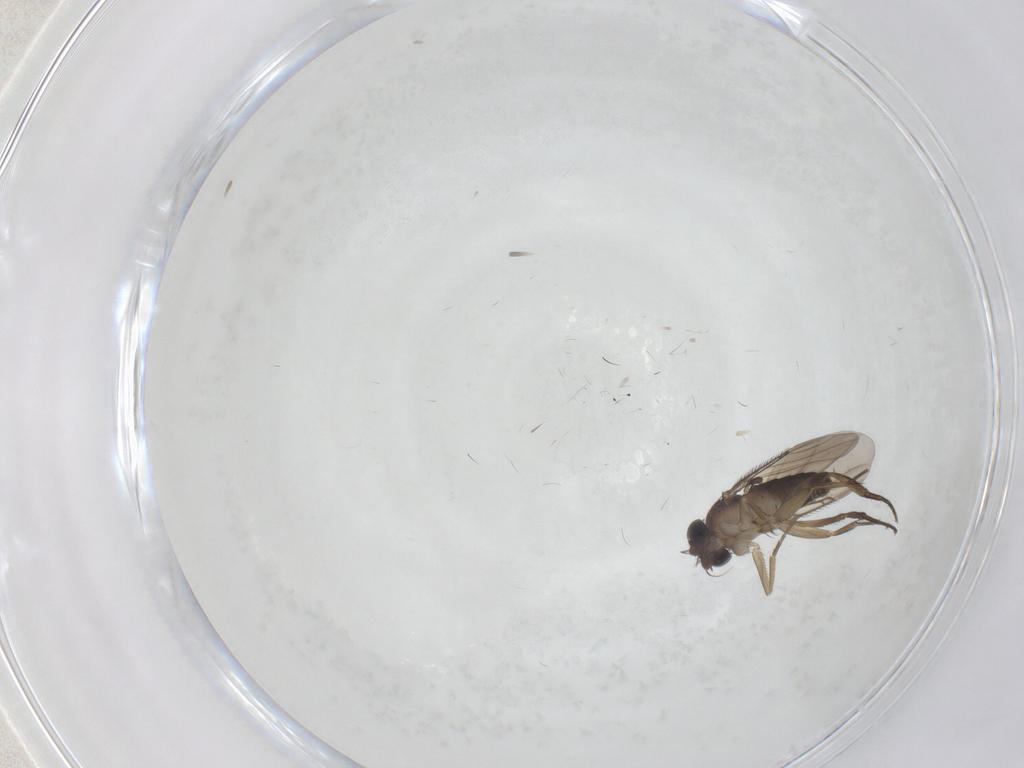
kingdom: Animalia
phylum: Arthropoda
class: Insecta
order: Diptera
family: Phoridae
